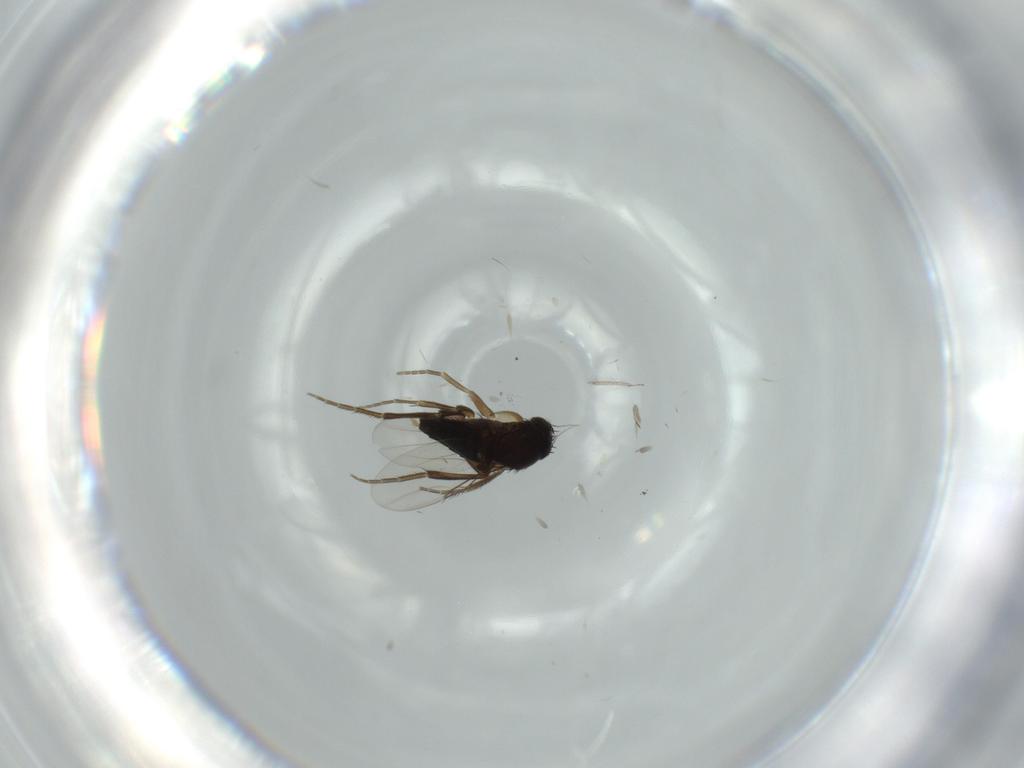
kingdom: Animalia
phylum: Arthropoda
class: Insecta
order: Diptera
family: Phoridae
